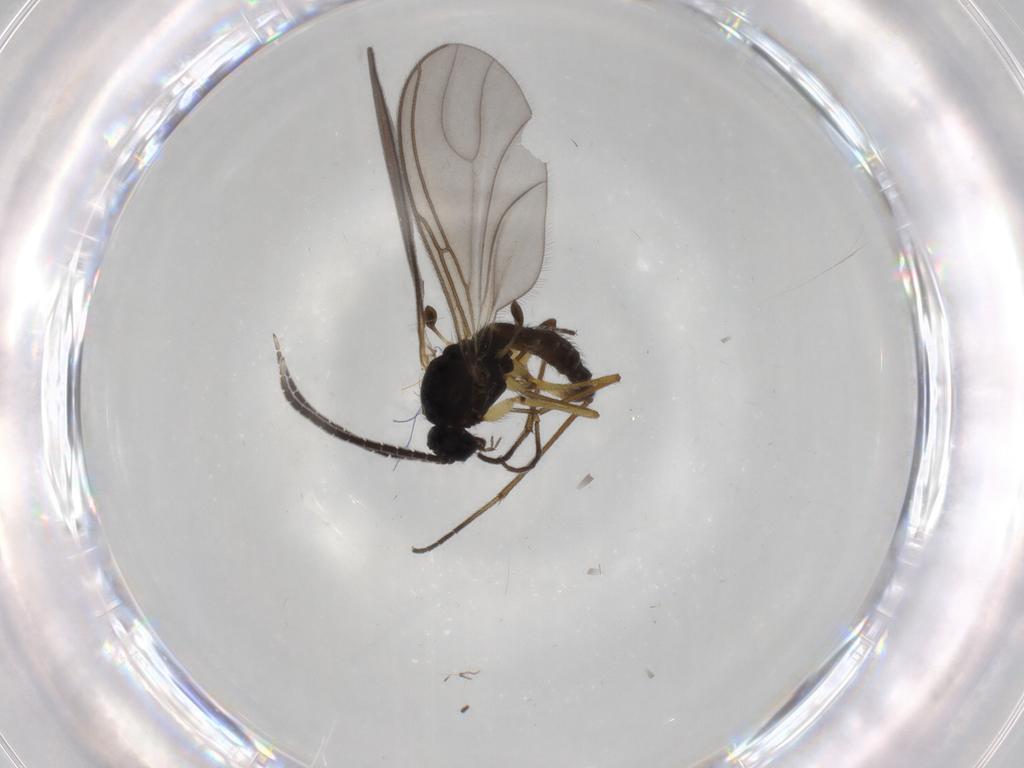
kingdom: Animalia
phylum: Arthropoda
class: Insecta
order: Diptera
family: Sciaridae
